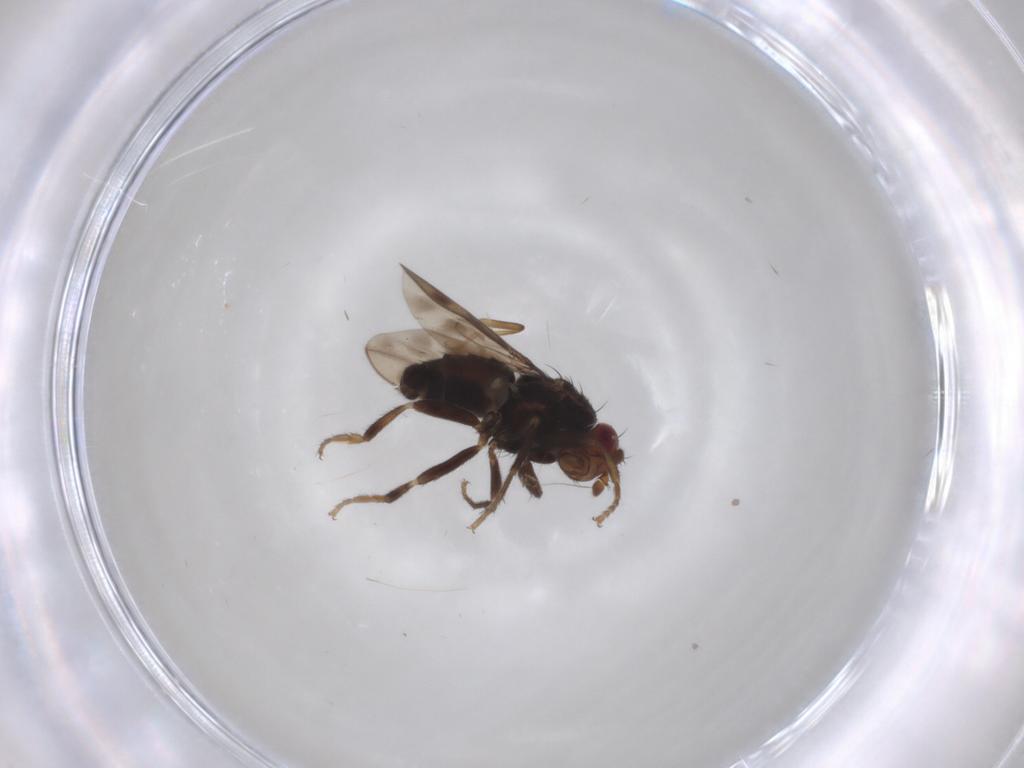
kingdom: Animalia
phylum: Arthropoda
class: Insecta
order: Diptera
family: Sphaeroceridae
